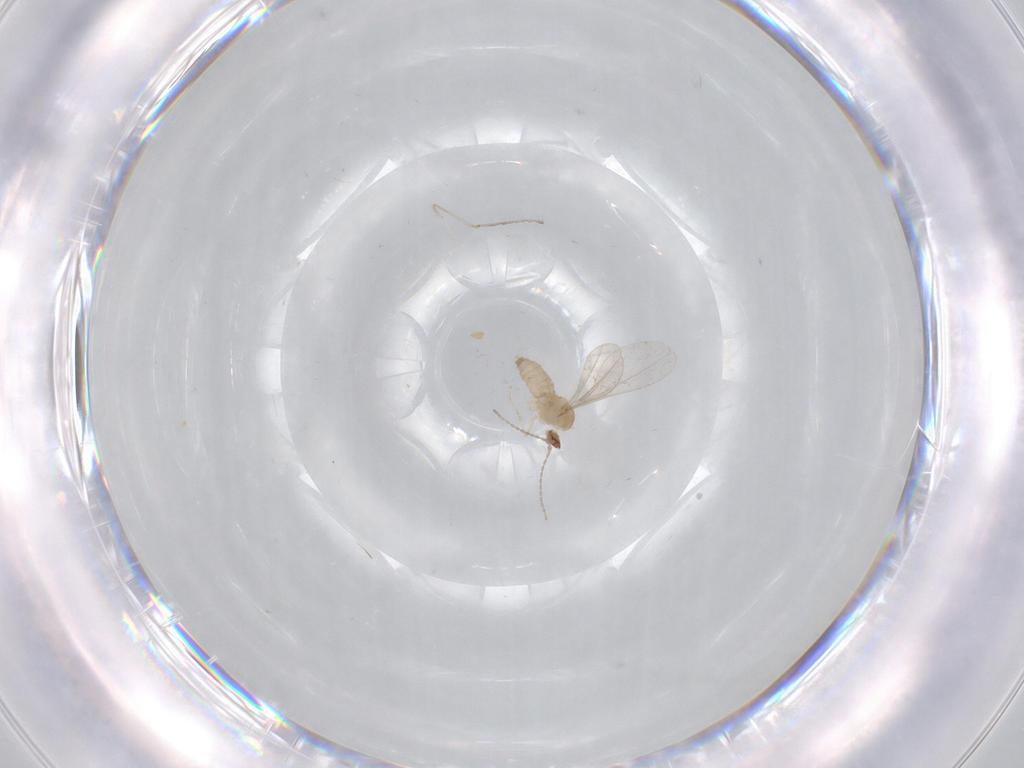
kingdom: Animalia
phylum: Arthropoda
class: Insecta
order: Diptera
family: Cecidomyiidae
